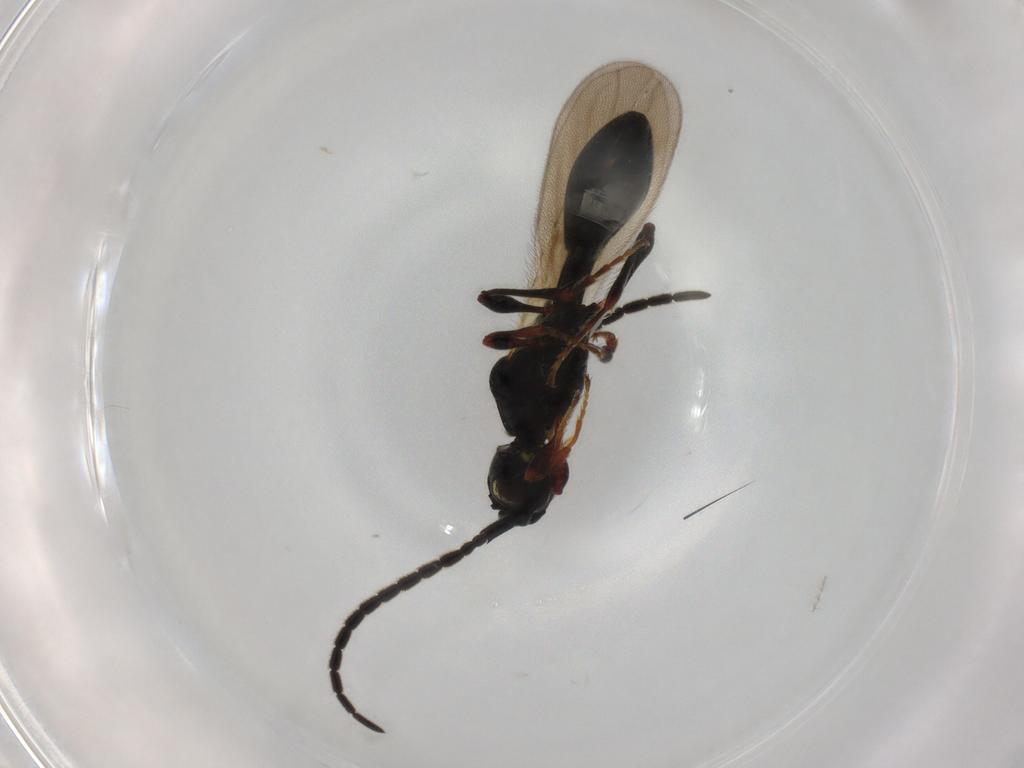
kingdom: Animalia
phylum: Arthropoda
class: Insecta
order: Hymenoptera
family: Diapriidae
